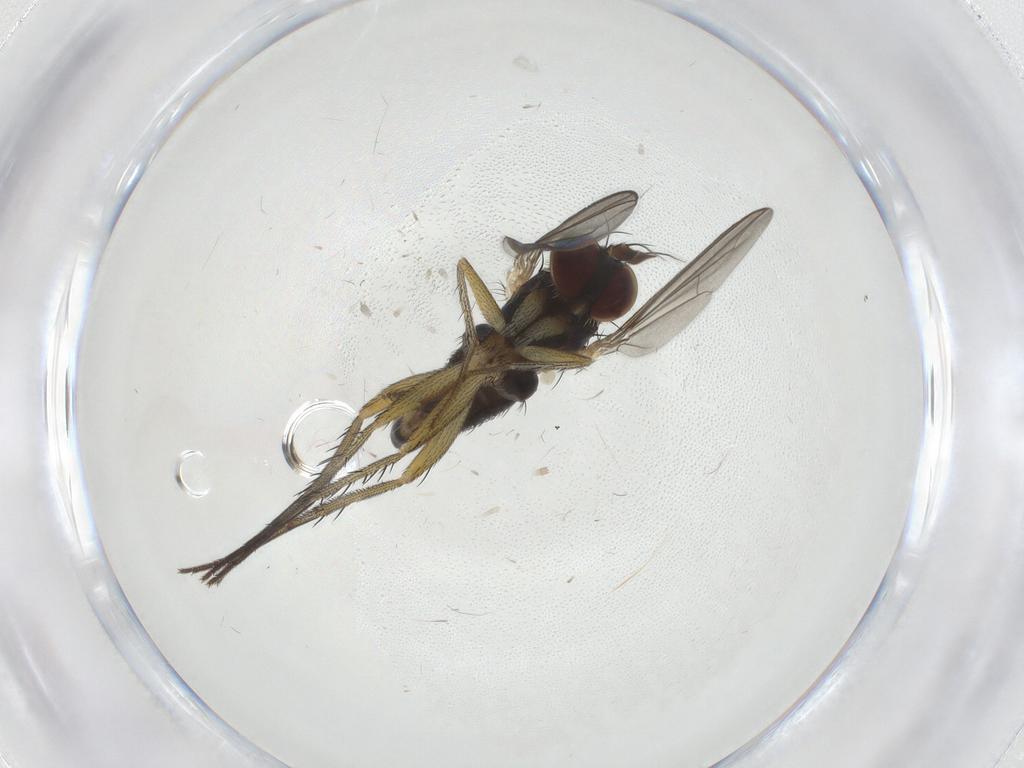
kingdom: Animalia
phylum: Arthropoda
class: Insecta
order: Diptera
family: Dolichopodidae
